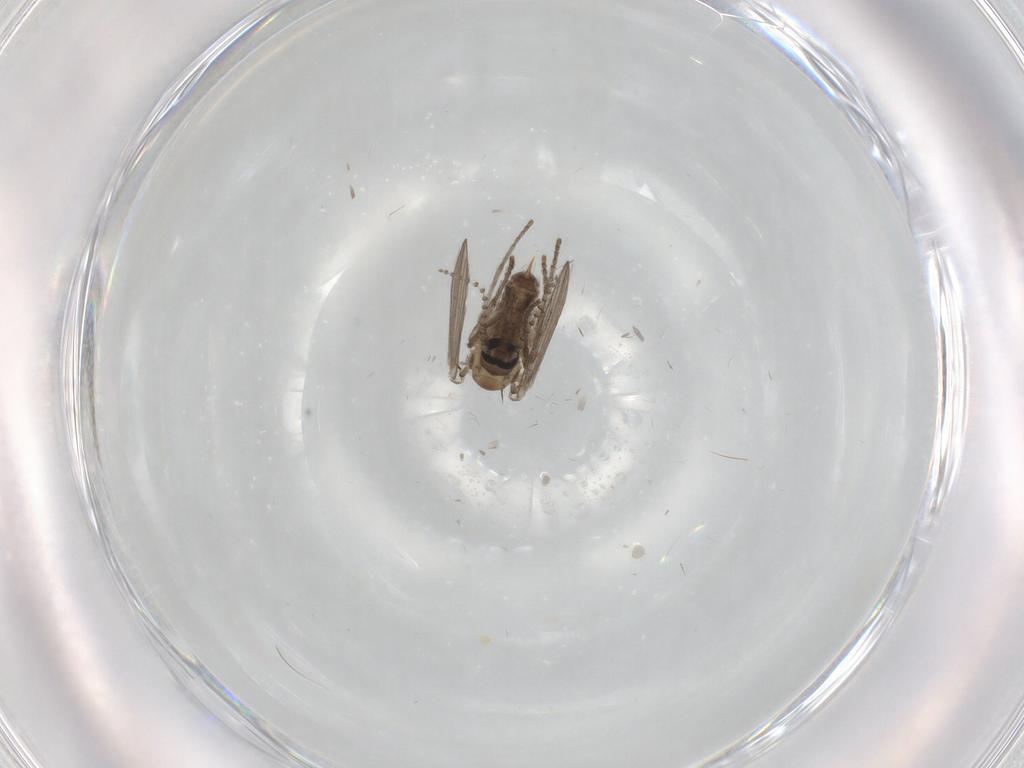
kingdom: Animalia
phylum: Arthropoda
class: Insecta
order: Diptera
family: Psychodidae
